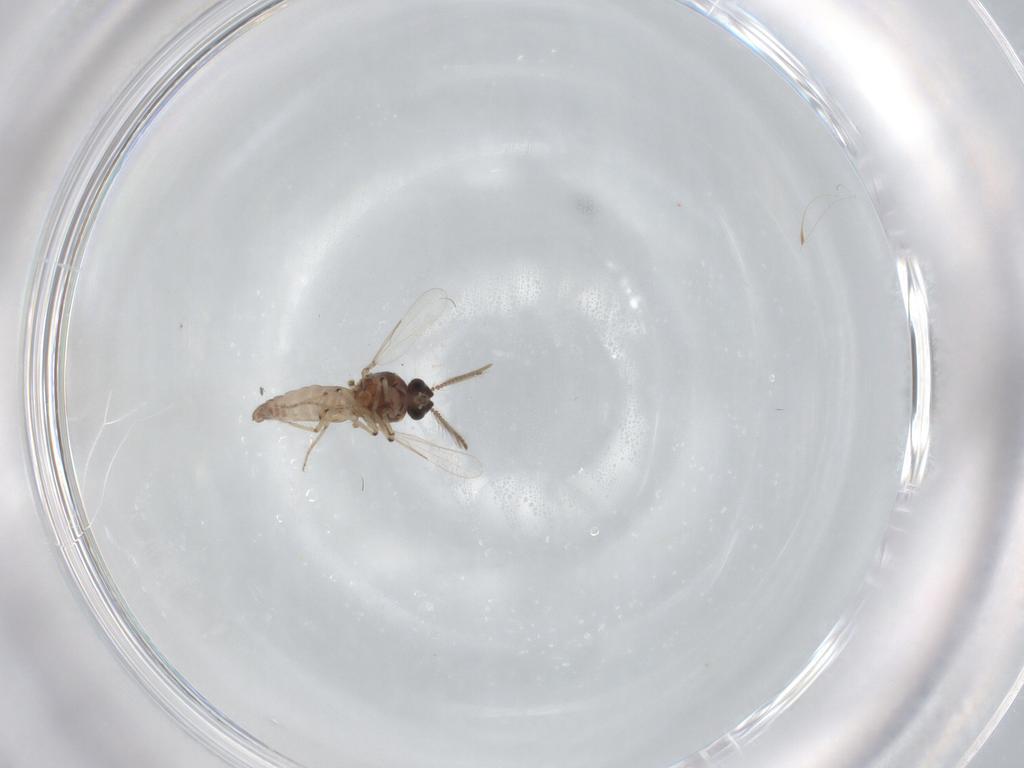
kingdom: Animalia
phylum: Arthropoda
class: Insecta
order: Diptera
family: Ceratopogonidae
